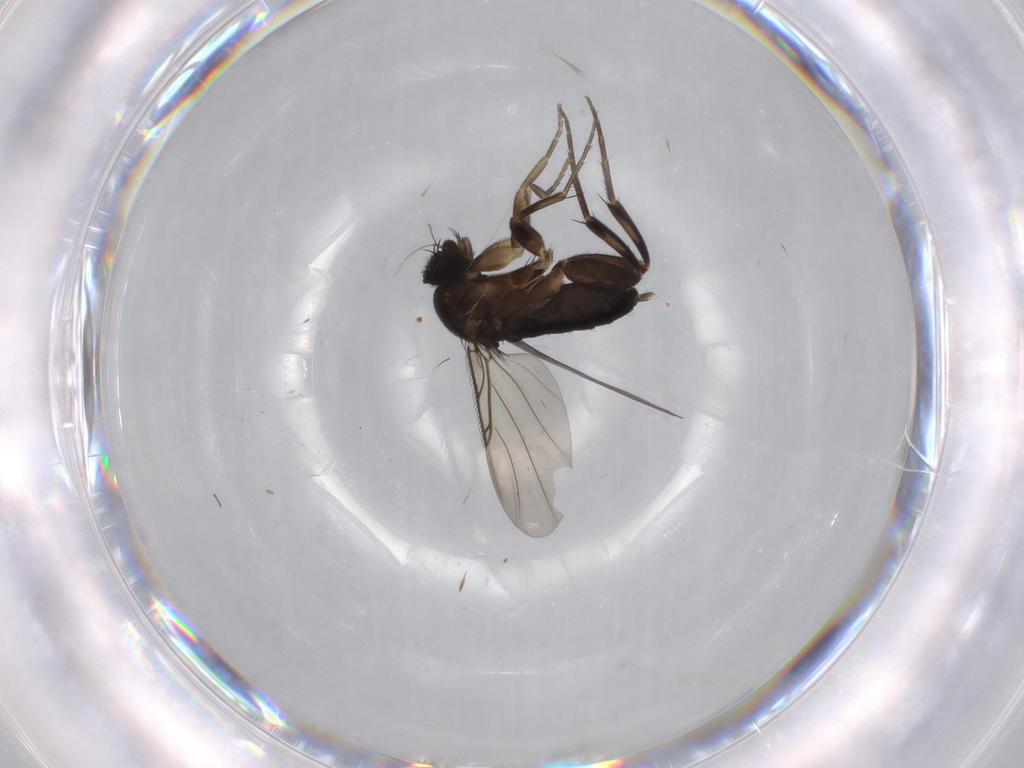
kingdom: Animalia
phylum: Arthropoda
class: Insecta
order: Diptera
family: Phoridae
